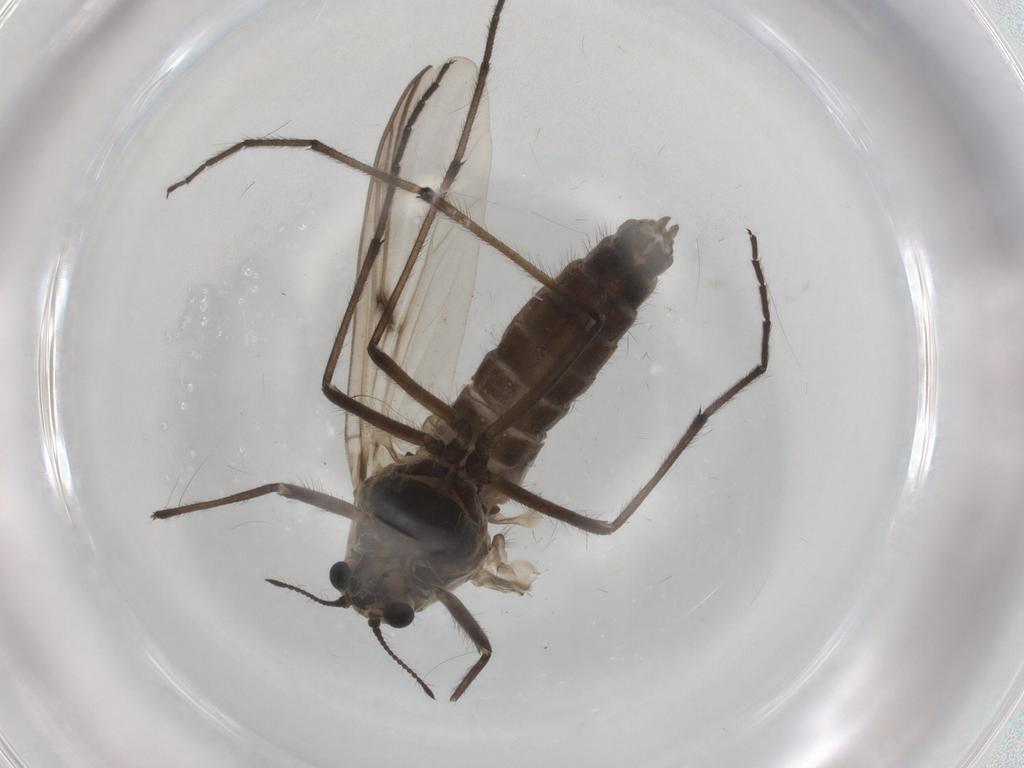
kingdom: Animalia
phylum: Arthropoda
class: Insecta
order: Diptera
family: Chironomidae
